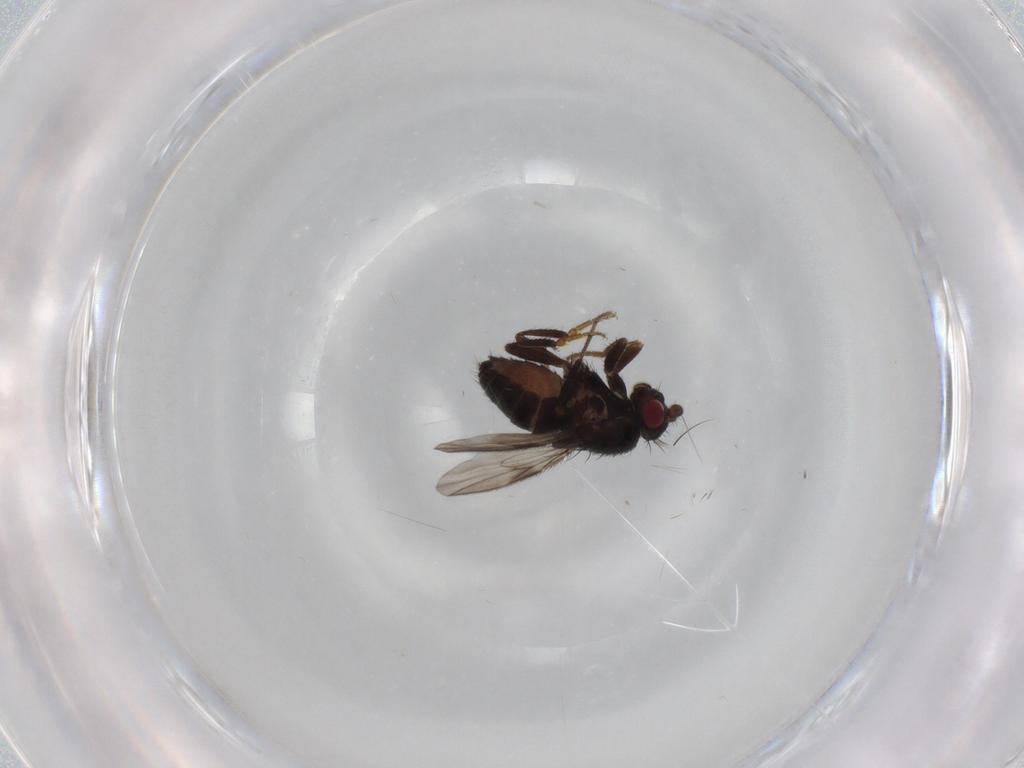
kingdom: Animalia
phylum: Arthropoda
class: Insecta
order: Diptera
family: Sphaeroceridae
